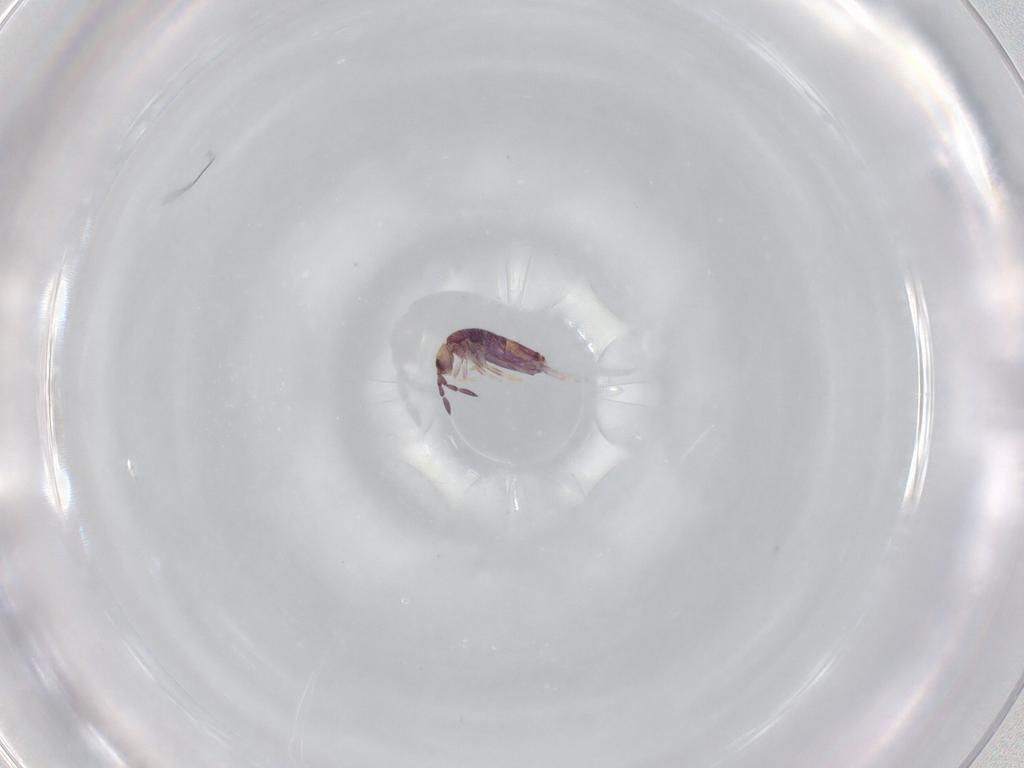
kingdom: Animalia
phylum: Arthropoda
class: Collembola
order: Entomobryomorpha
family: Entomobryidae
